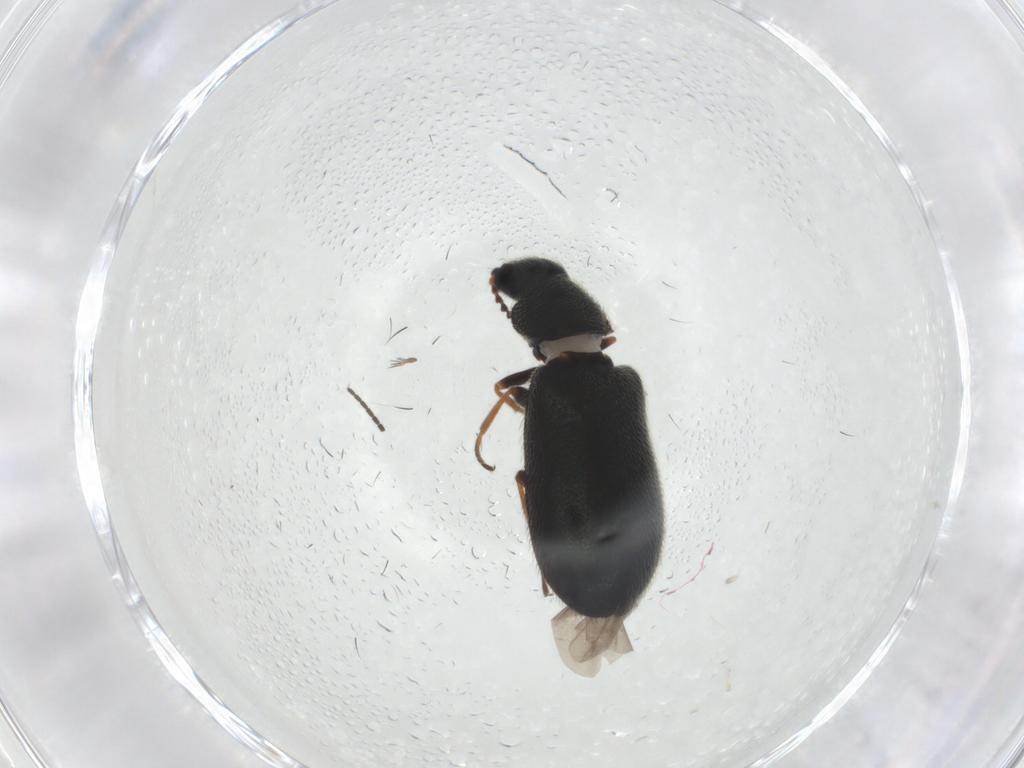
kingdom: Animalia
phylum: Arthropoda
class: Insecta
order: Coleoptera
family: Melyridae
